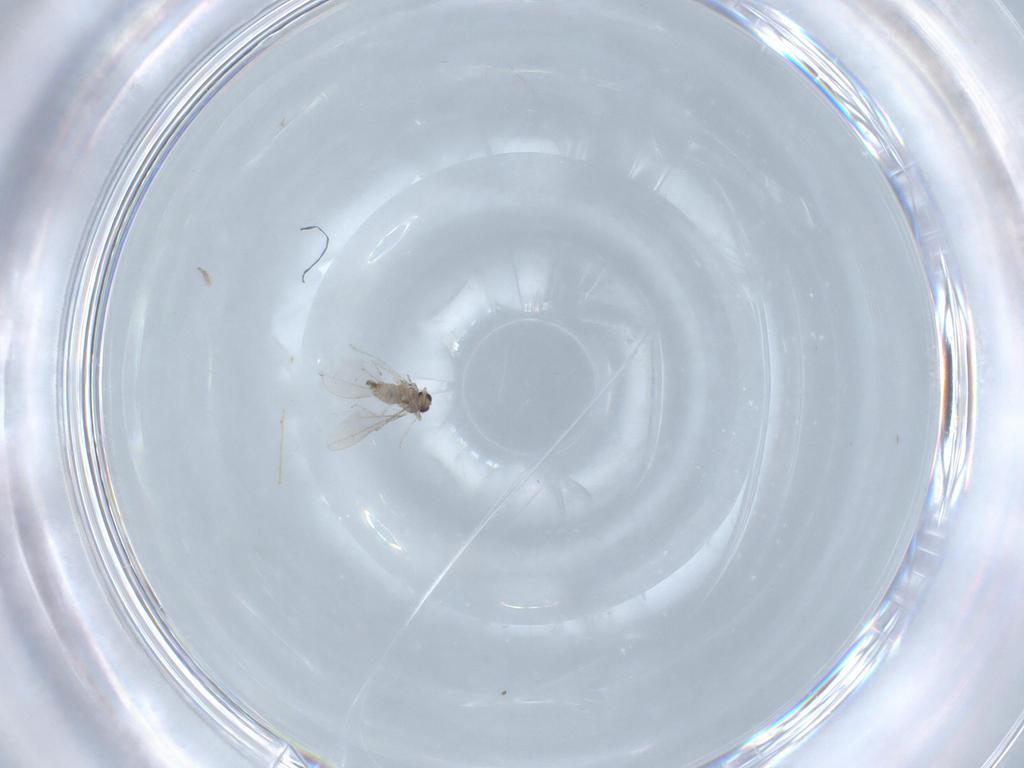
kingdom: Animalia
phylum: Arthropoda
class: Insecta
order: Diptera
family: Cecidomyiidae
